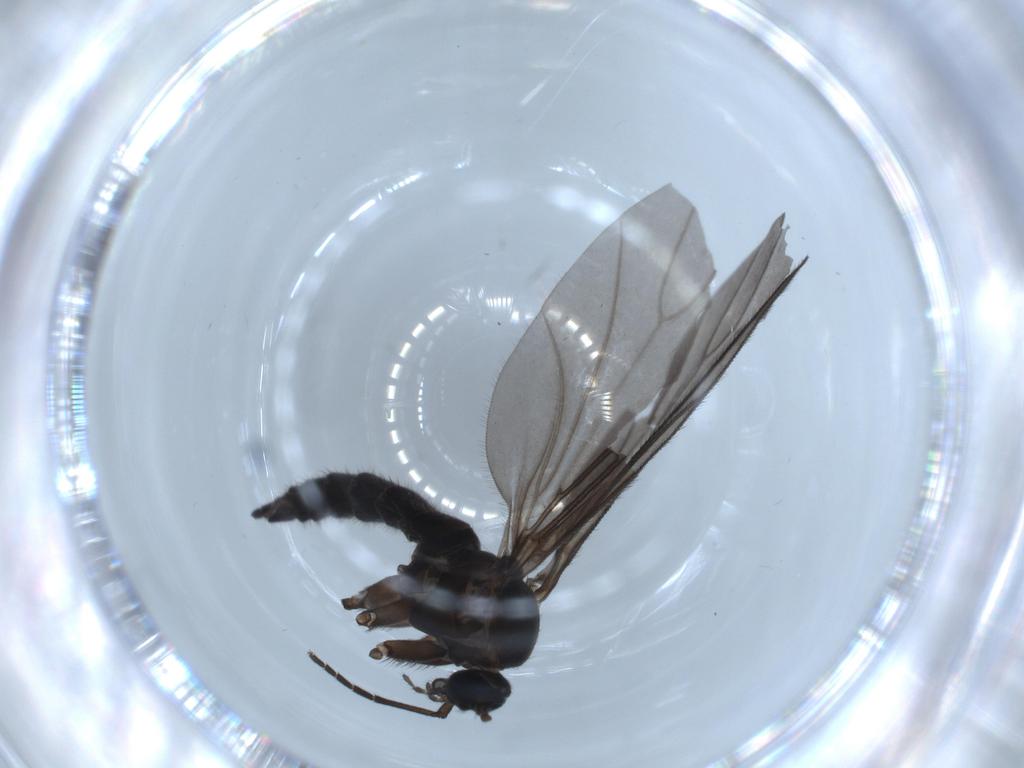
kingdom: Animalia
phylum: Arthropoda
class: Insecta
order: Diptera
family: Sciaridae
